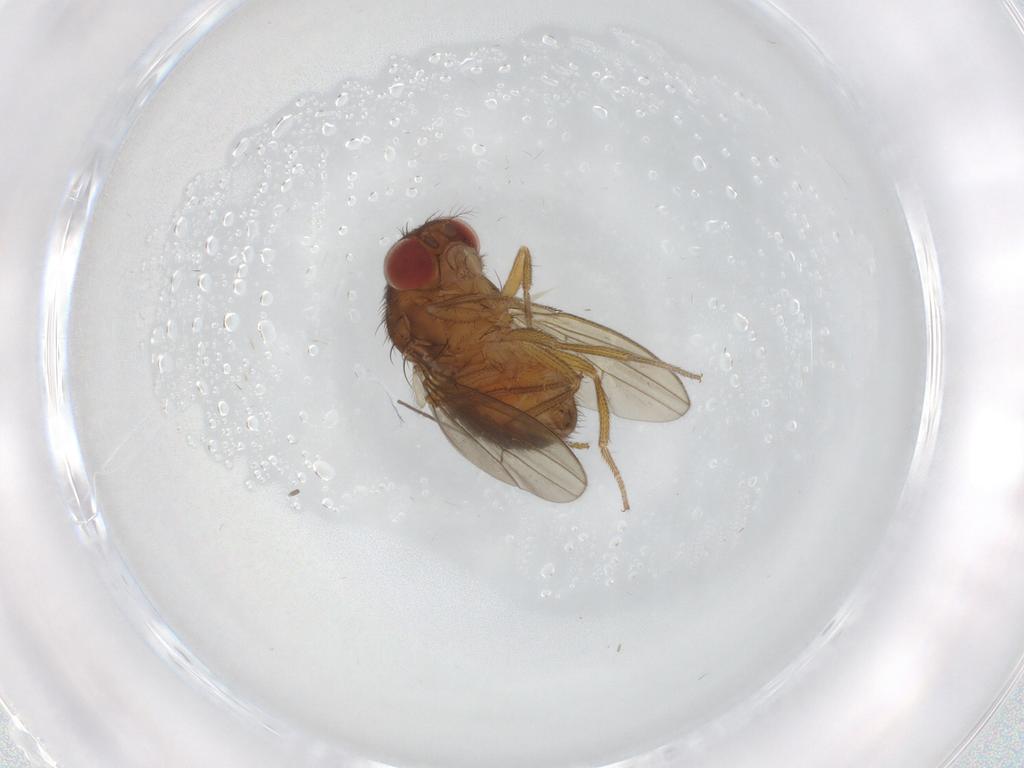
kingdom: Animalia
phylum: Arthropoda
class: Insecta
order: Diptera
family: Drosophilidae
